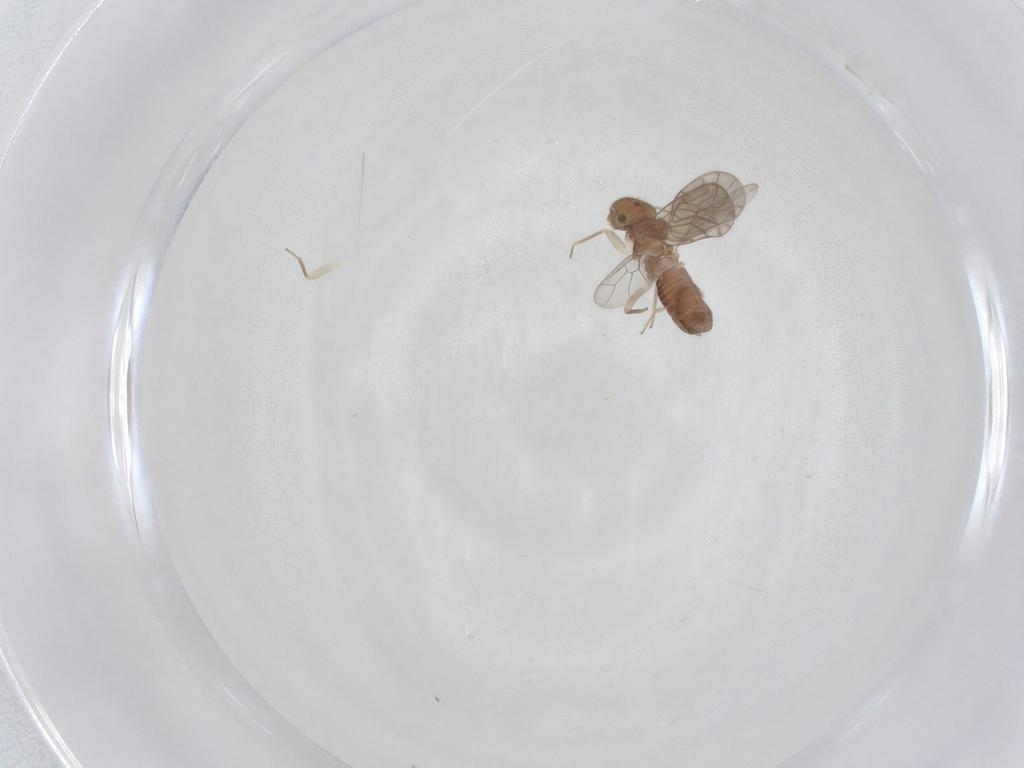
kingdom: Animalia
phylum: Arthropoda
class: Insecta
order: Psocodea
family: Ectopsocidae
